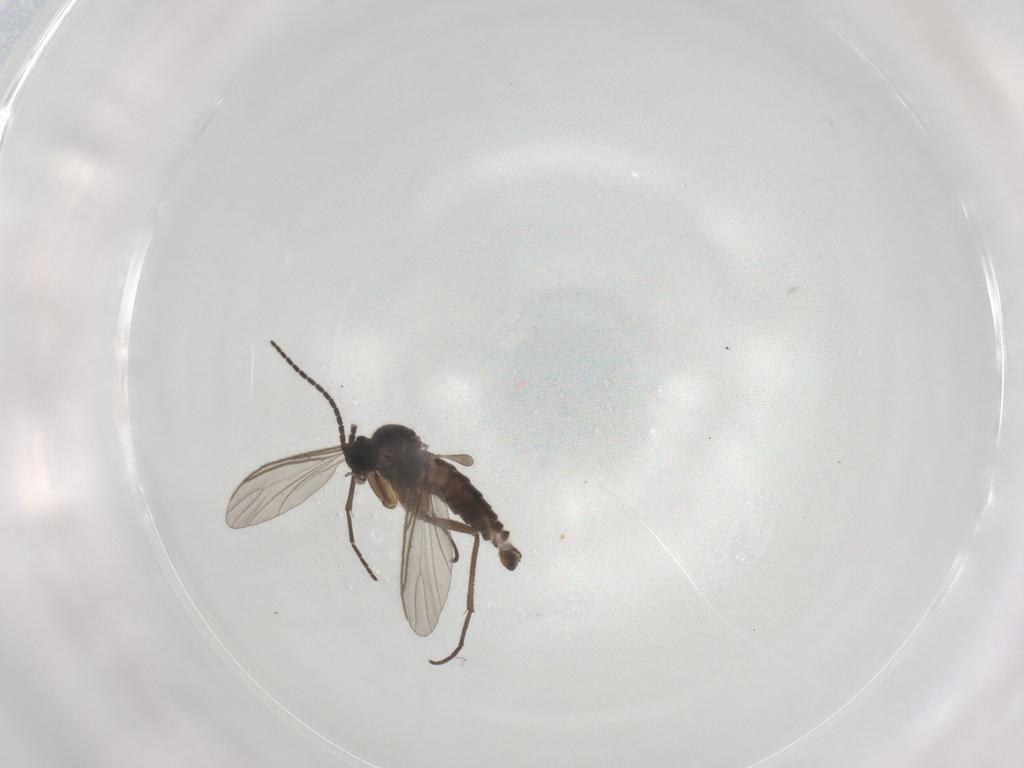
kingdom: Animalia
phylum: Arthropoda
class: Insecta
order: Diptera
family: Sciaridae
